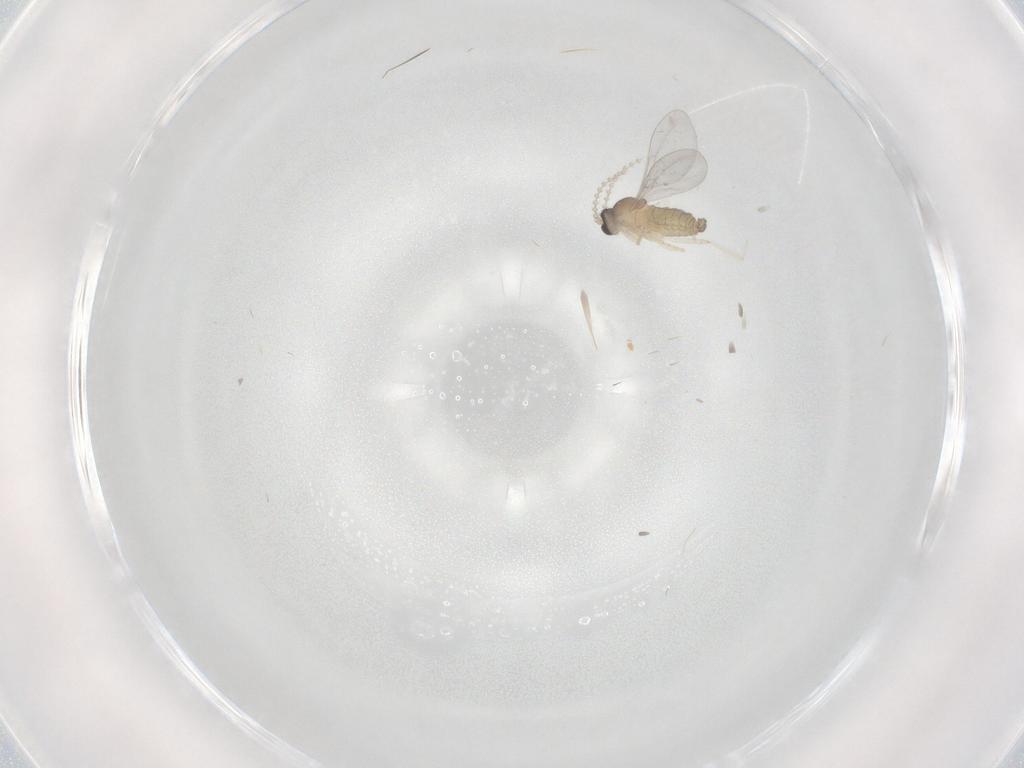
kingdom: Animalia
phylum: Arthropoda
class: Insecta
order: Diptera
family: Cecidomyiidae
